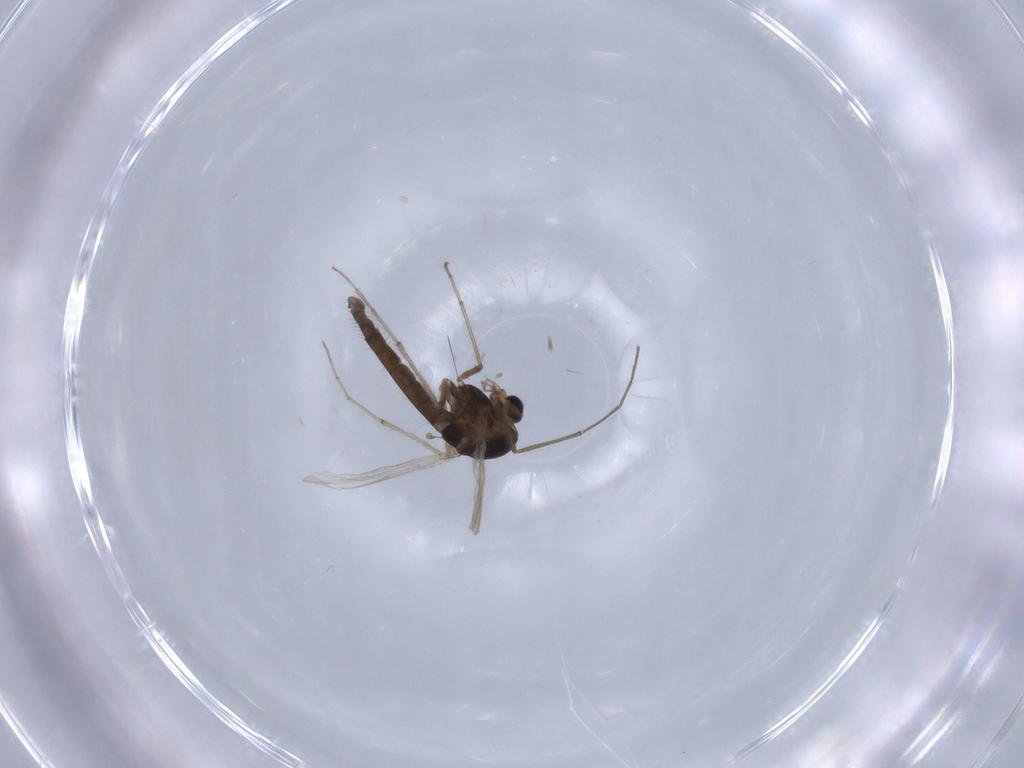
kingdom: Animalia
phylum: Arthropoda
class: Insecta
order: Diptera
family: Chironomidae
